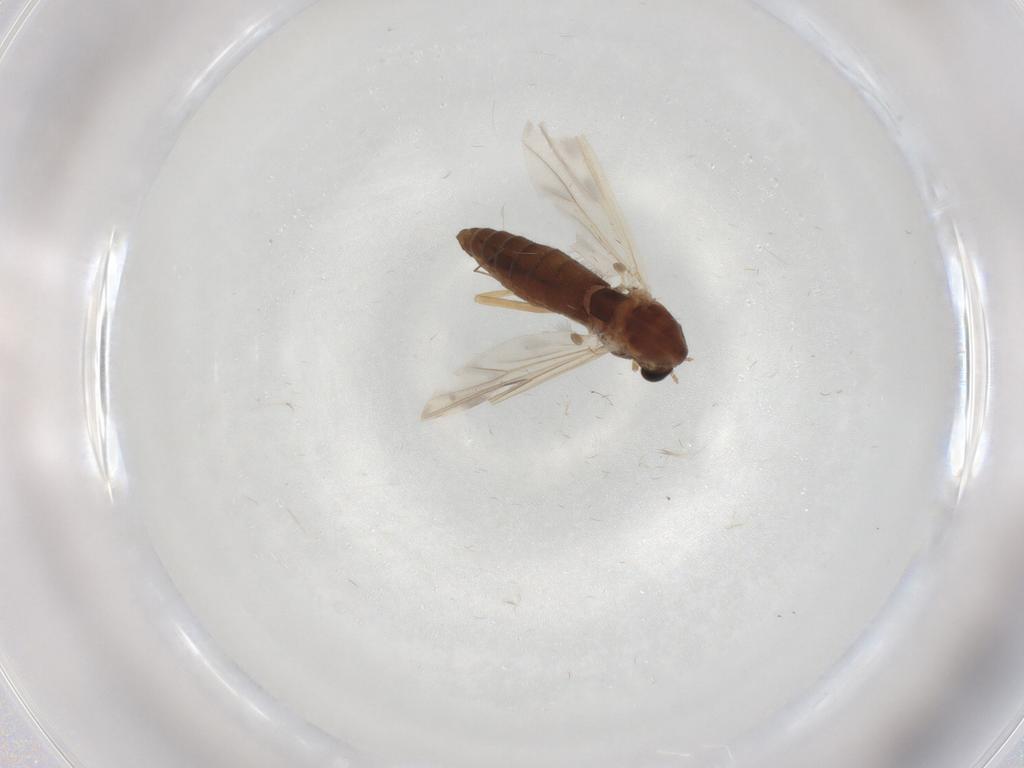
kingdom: Animalia
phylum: Arthropoda
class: Insecta
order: Diptera
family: Chironomidae
